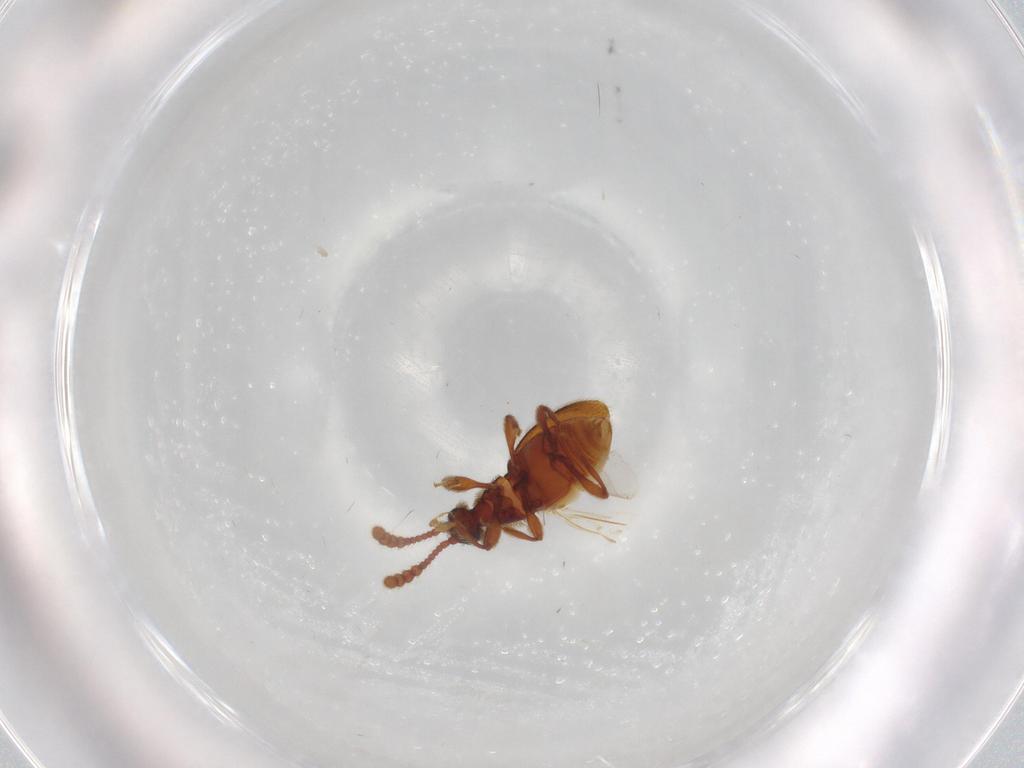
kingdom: Animalia
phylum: Arthropoda
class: Insecta
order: Coleoptera
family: Staphylinidae
